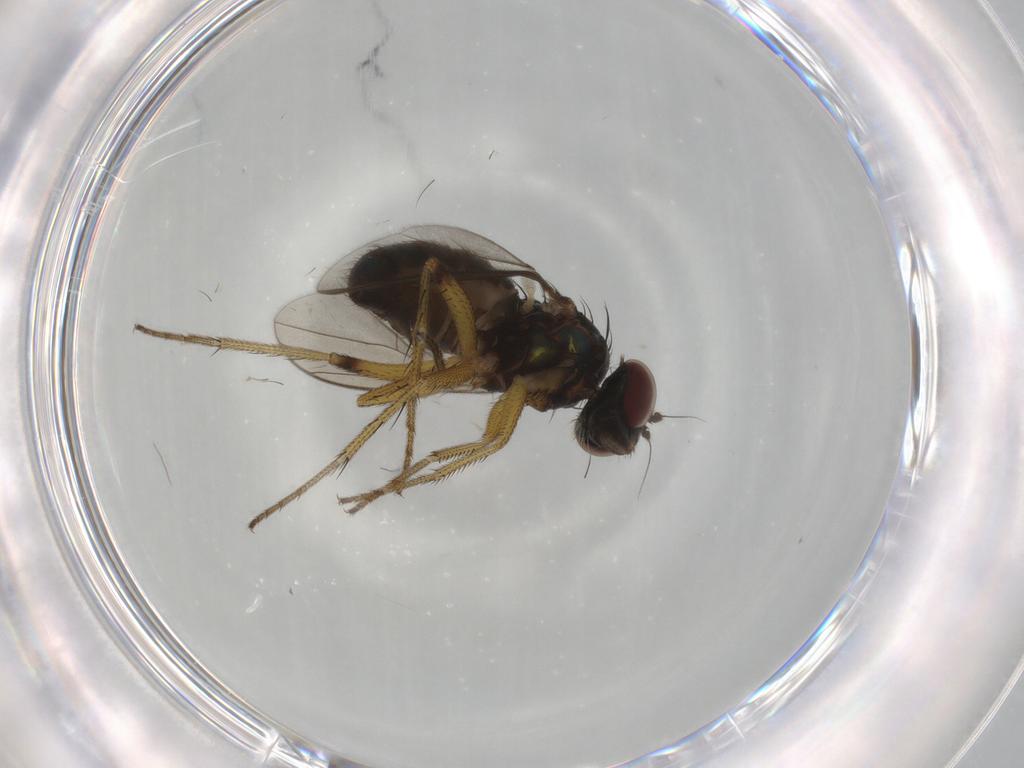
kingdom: Animalia
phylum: Arthropoda
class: Insecta
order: Diptera
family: Dolichopodidae
